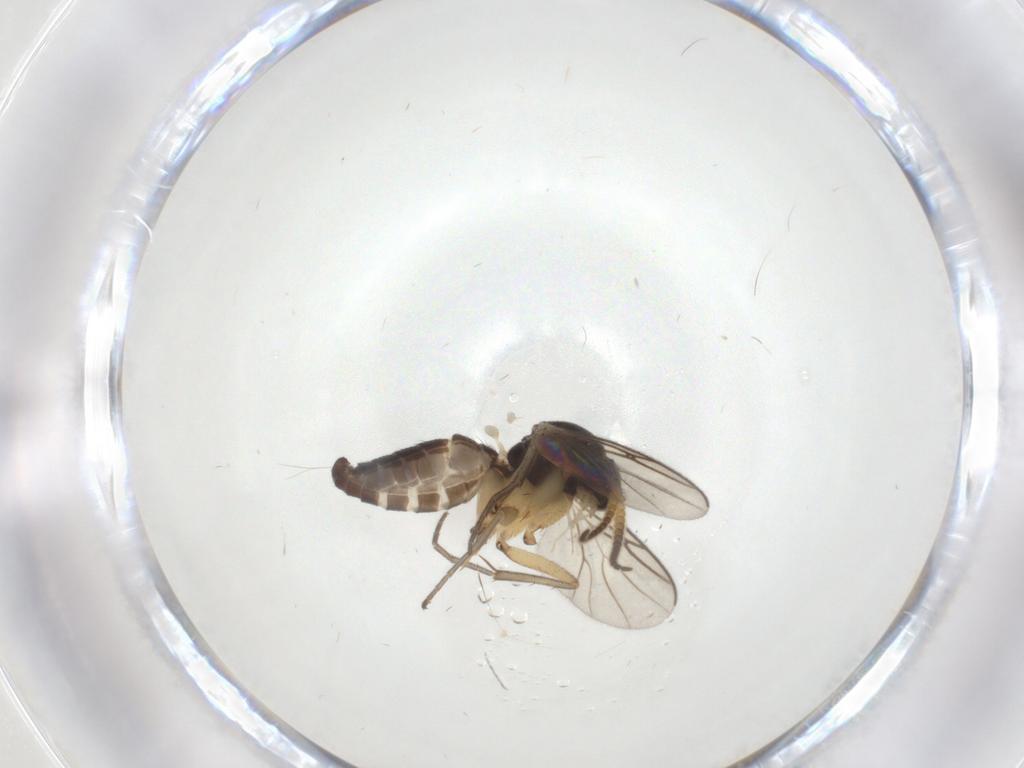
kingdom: Animalia
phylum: Arthropoda
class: Insecta
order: Diptera
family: Mycetophilidae
